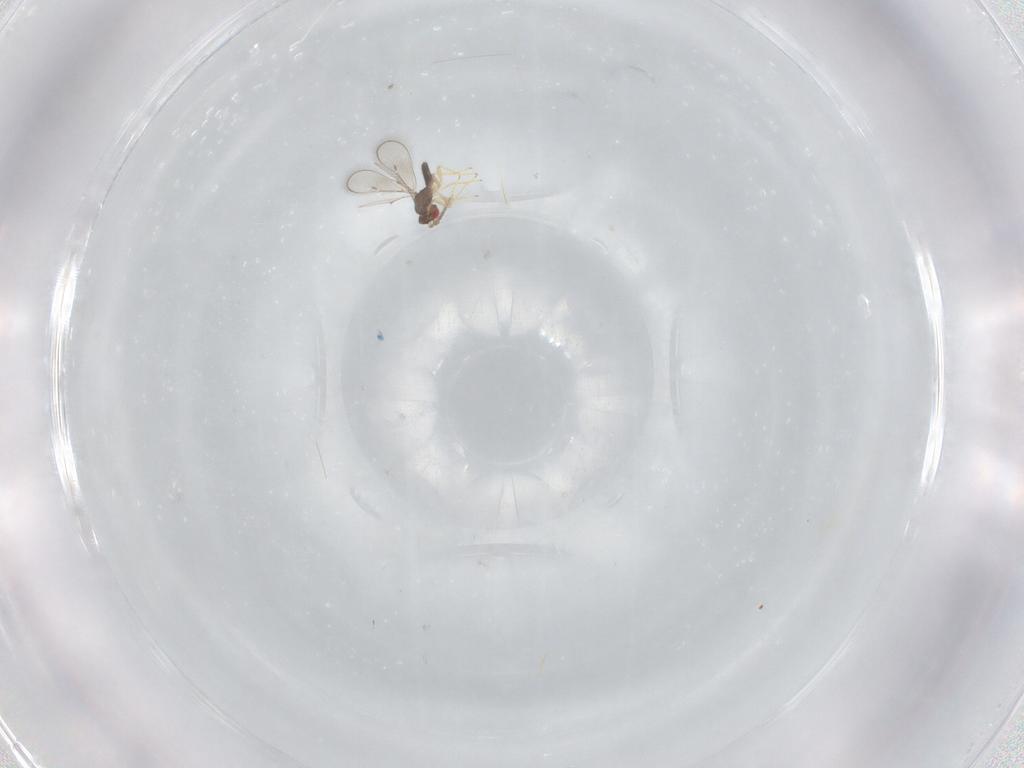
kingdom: Animalia
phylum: Arthropoda
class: Insecta
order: Hymenoptera
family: Eulophidae
